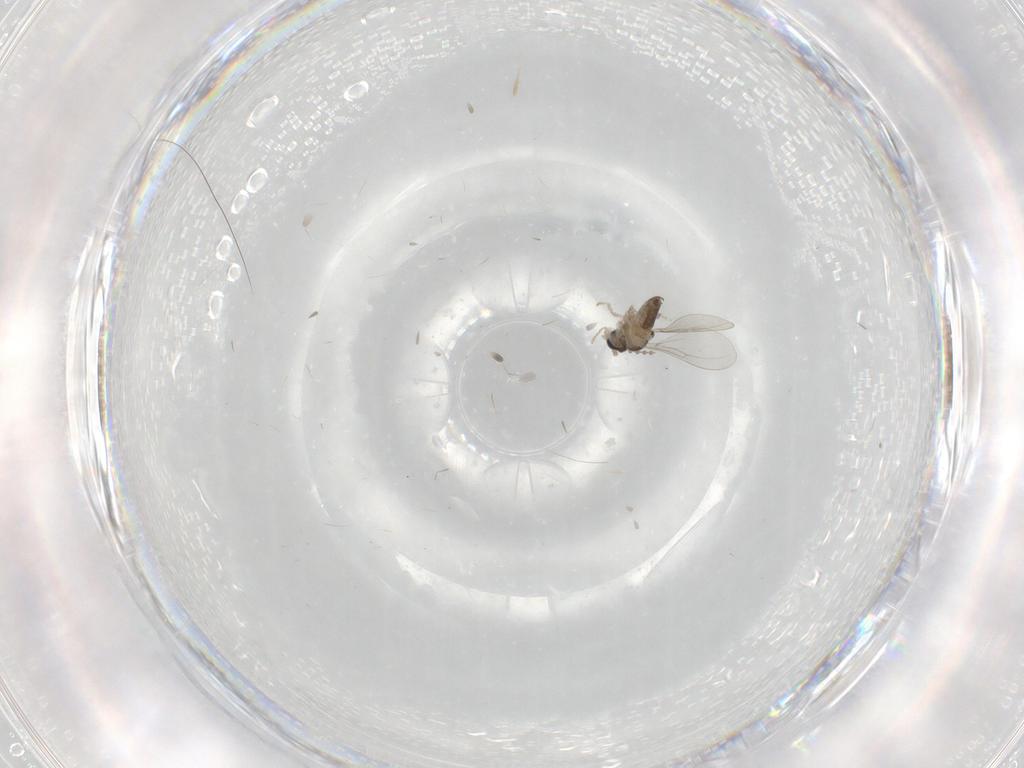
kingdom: Animalia
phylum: Arthropoda
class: Insecta
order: Diptera
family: Cecidomyiidae
